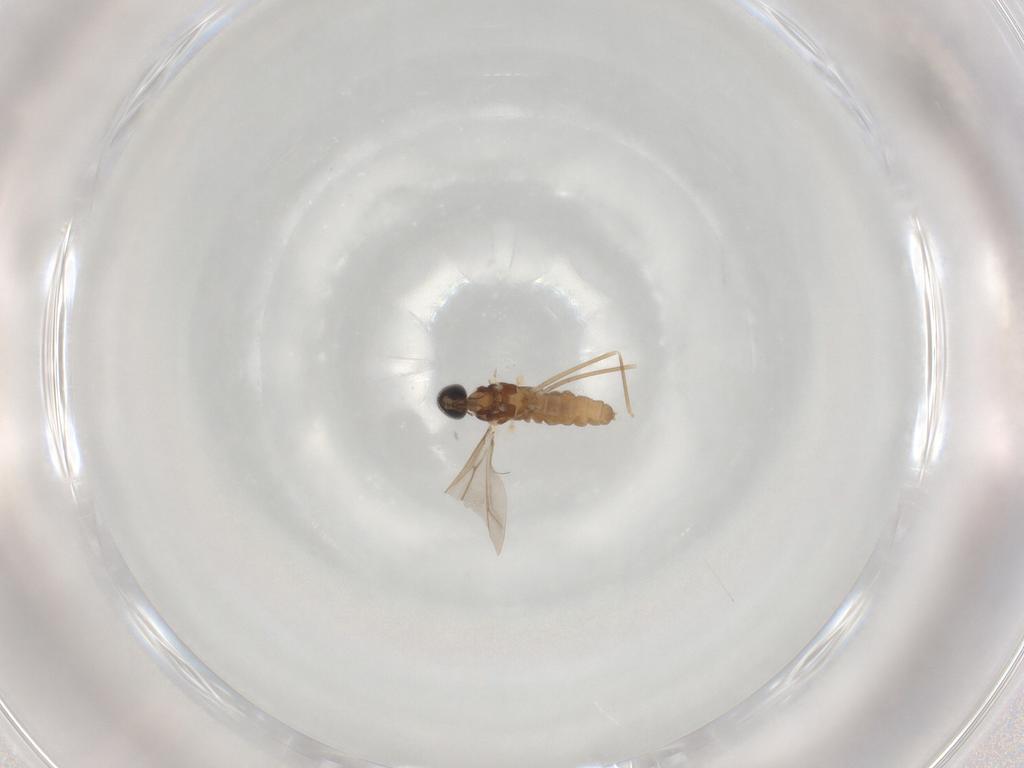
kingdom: Animalia
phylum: Arthropoda
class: Insecta
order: Diptera
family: Cecidomyiidae
